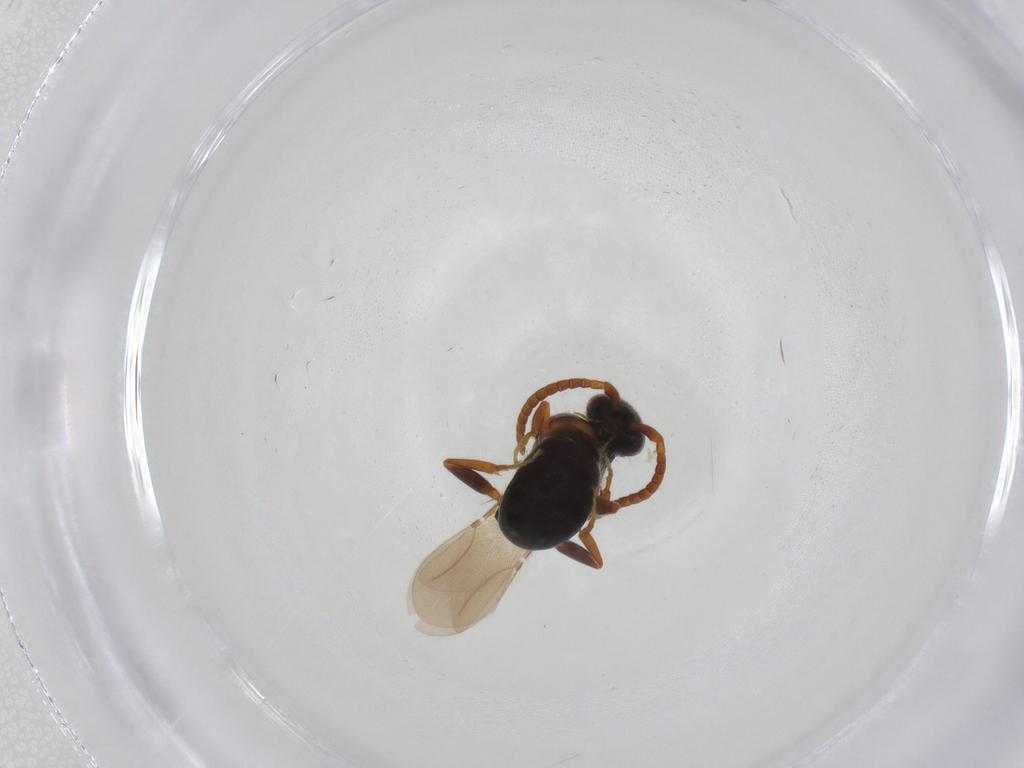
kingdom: Animalia
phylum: Arthropoda
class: Insecta
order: Hymenoptera
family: Bethylidae
